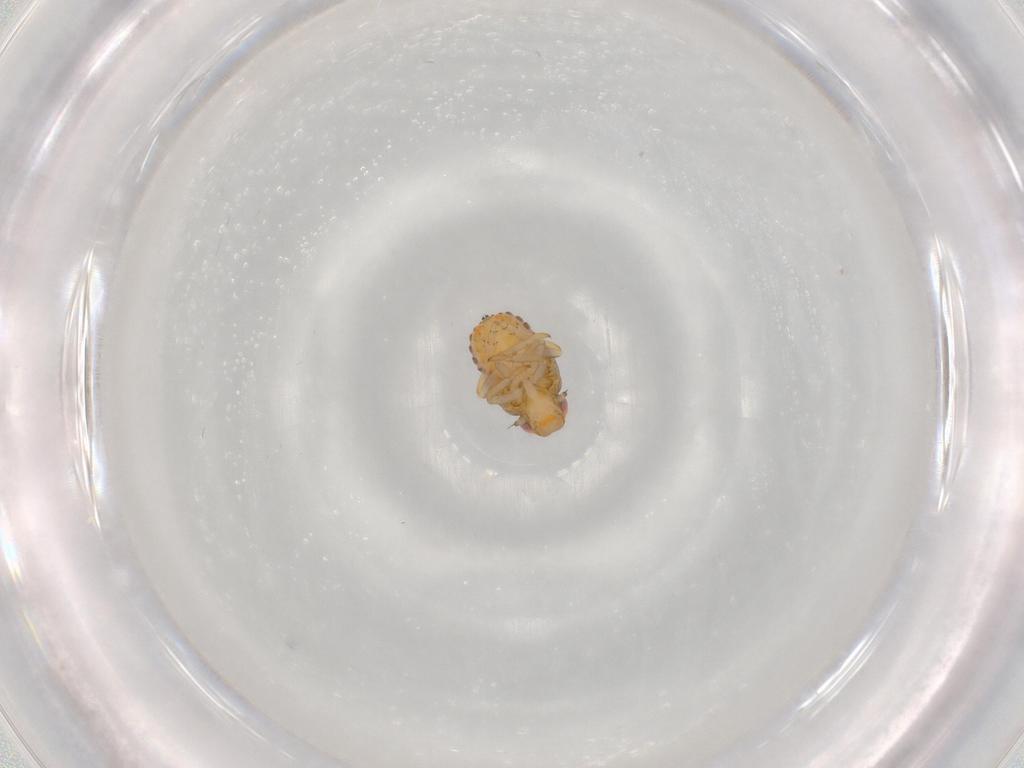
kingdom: Animalia
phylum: Arthropoda
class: Insecta
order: Hemiptera
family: Issidae
